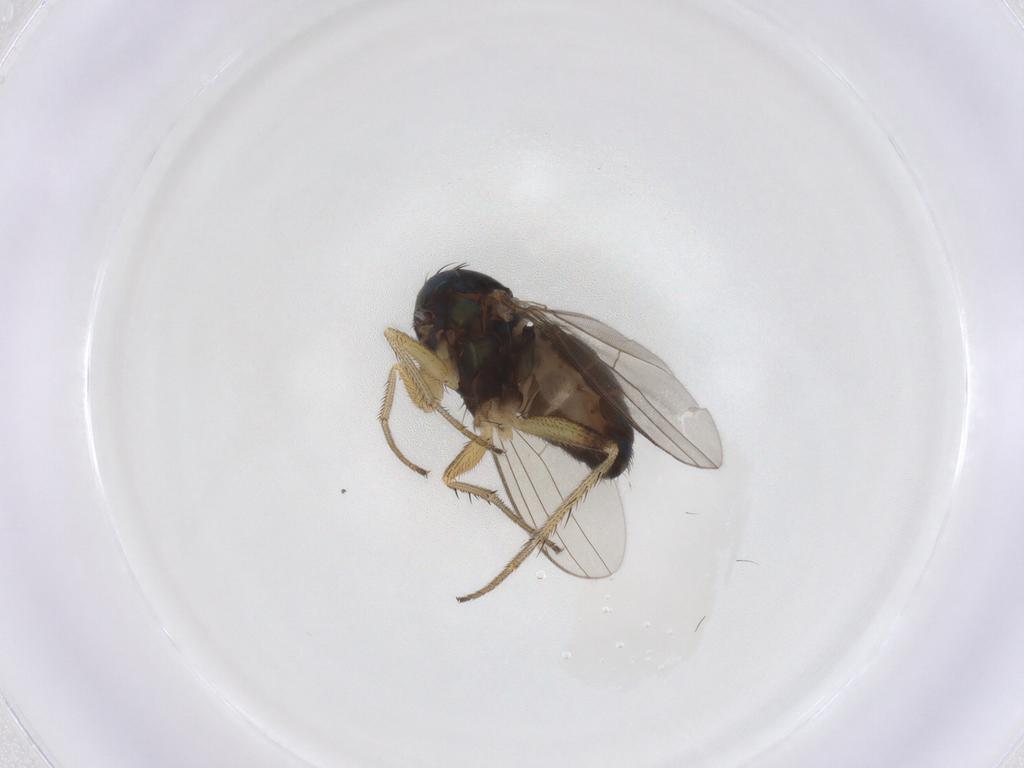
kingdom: Animalia
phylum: Arthropoda
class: Insecta
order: Diptera
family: Chironomidae
